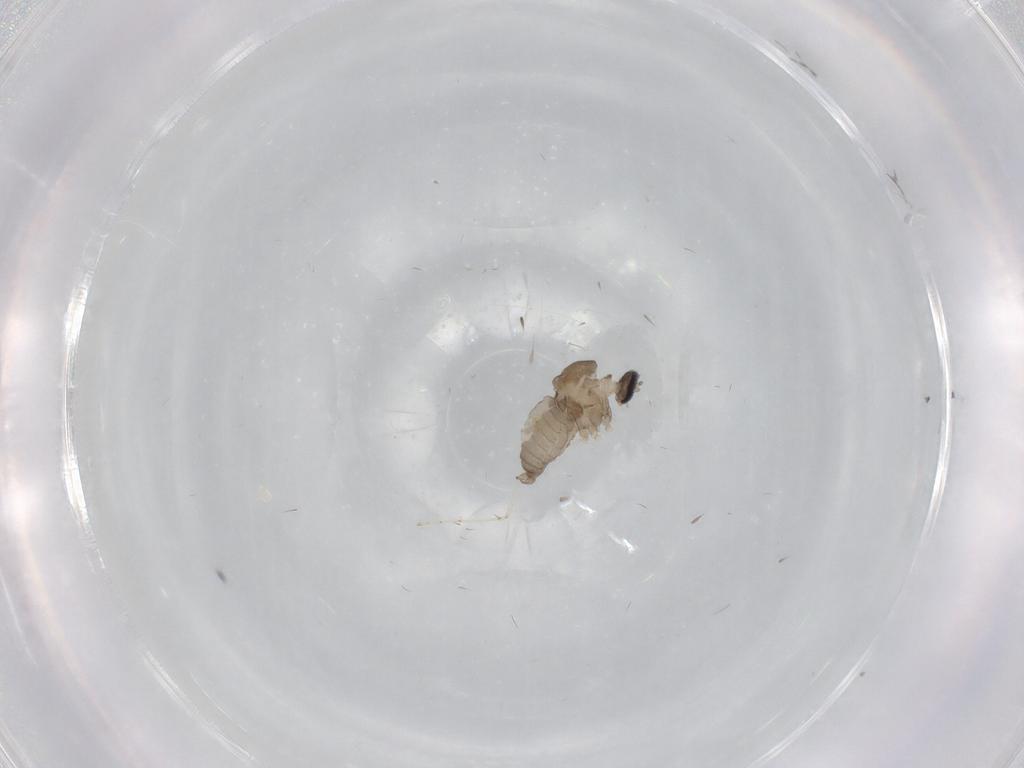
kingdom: Animalia
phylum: Arthropoda
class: Insecta
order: Diptera
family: Cecidomyiidae
